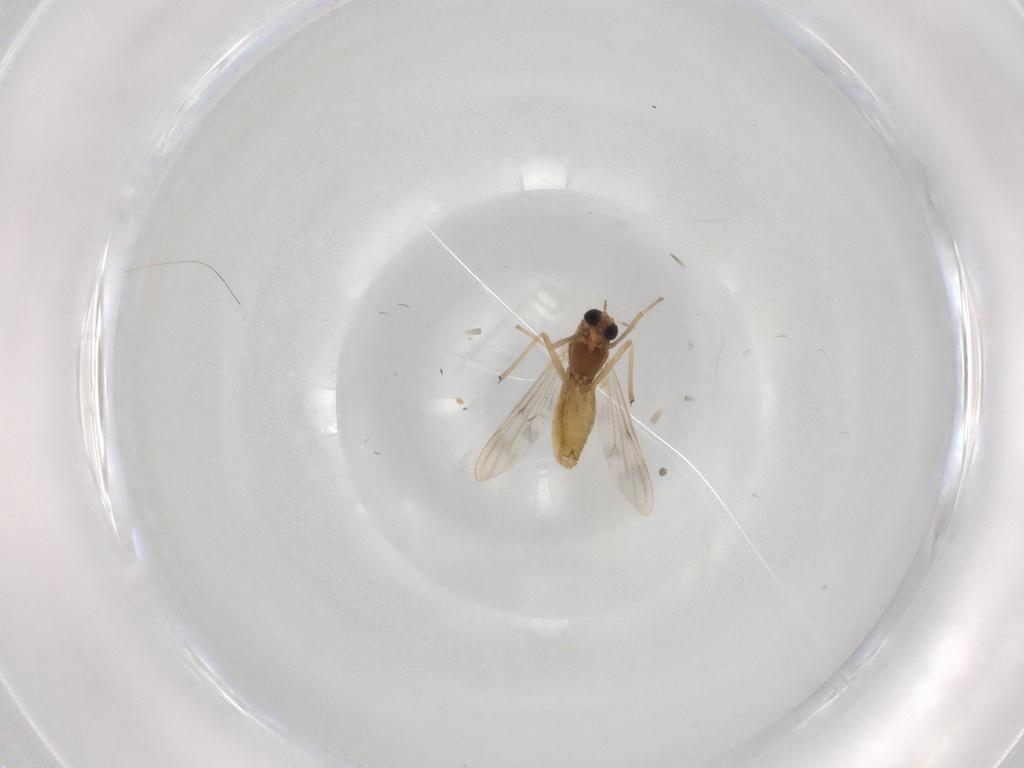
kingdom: Animalia
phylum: Arthropoda
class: Insecta
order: Diptera
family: Chironomidae
